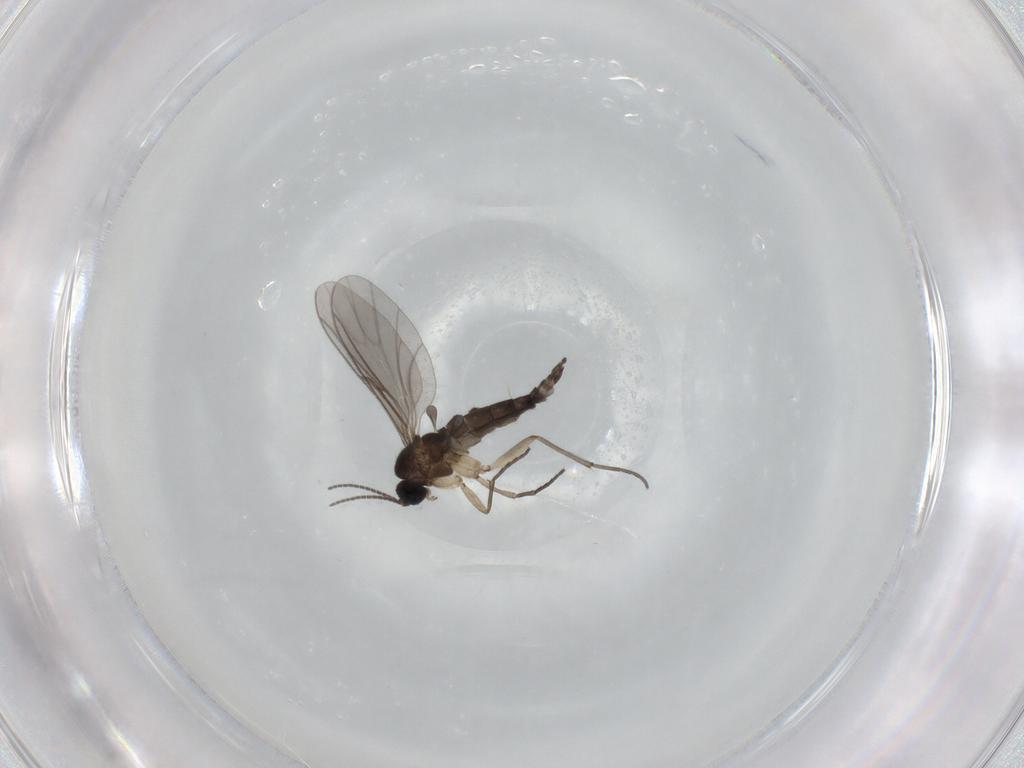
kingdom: Animalia
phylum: Arthropoda
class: Insecta
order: Diptera
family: Sciaridae
